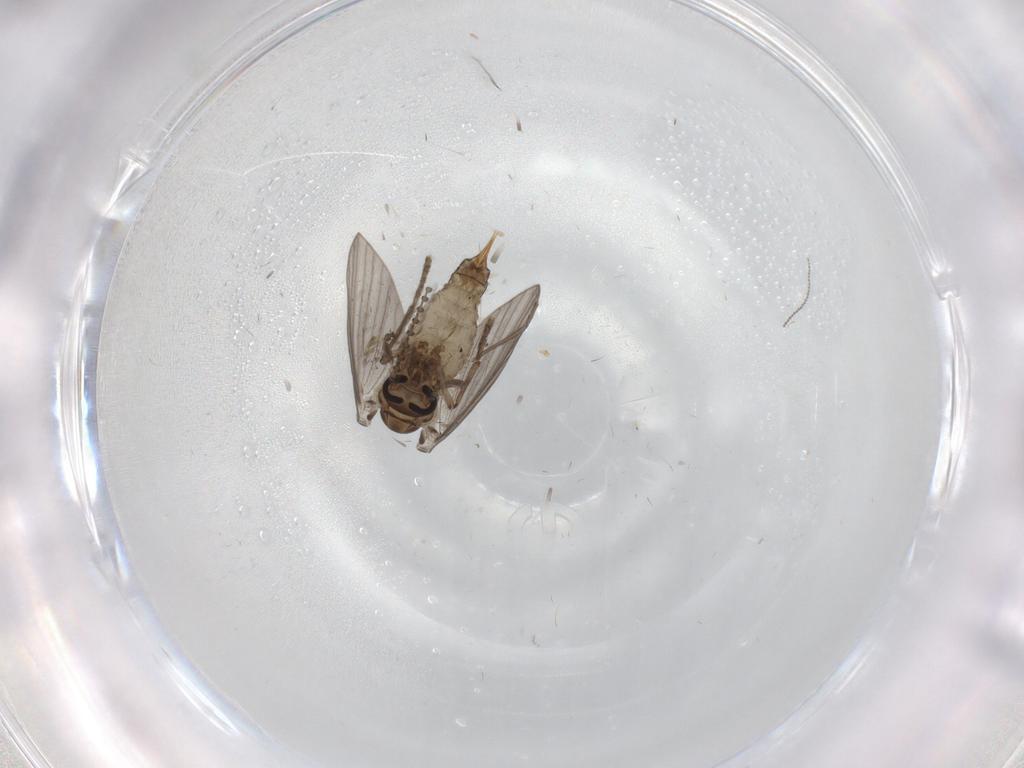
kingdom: Animalia
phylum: Arthropoda
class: Insecta
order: Diptera
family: Psychodidae
